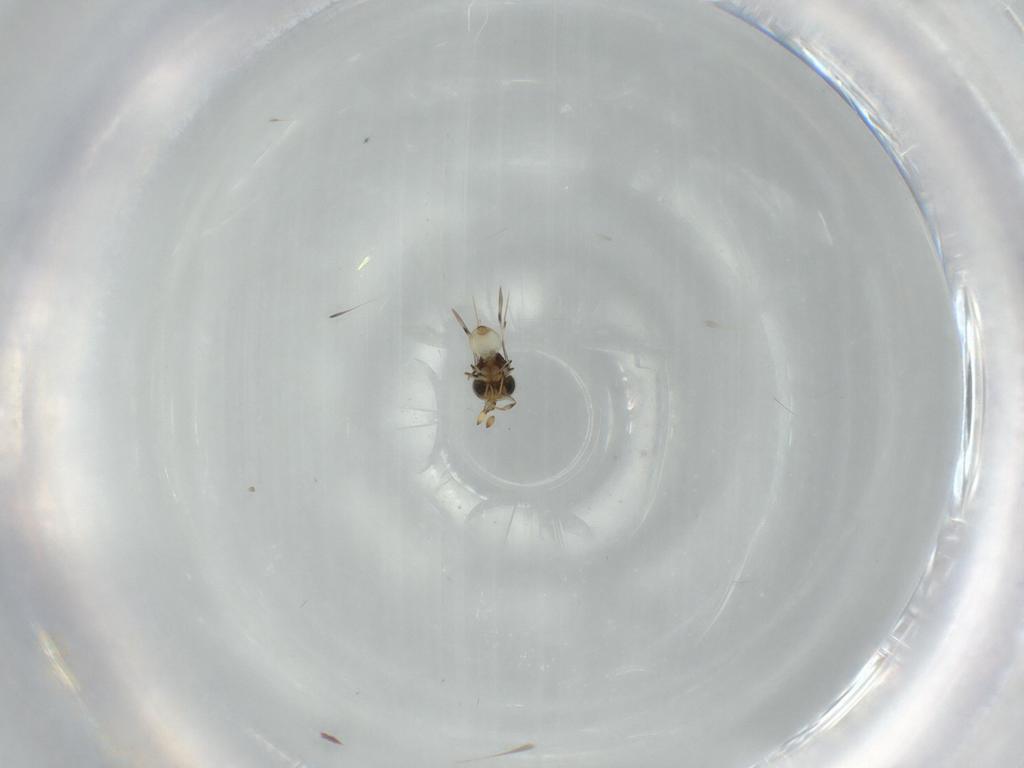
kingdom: Animalia
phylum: Arthropoda
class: Insecta
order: Hymenoptera
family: Scelionidae
